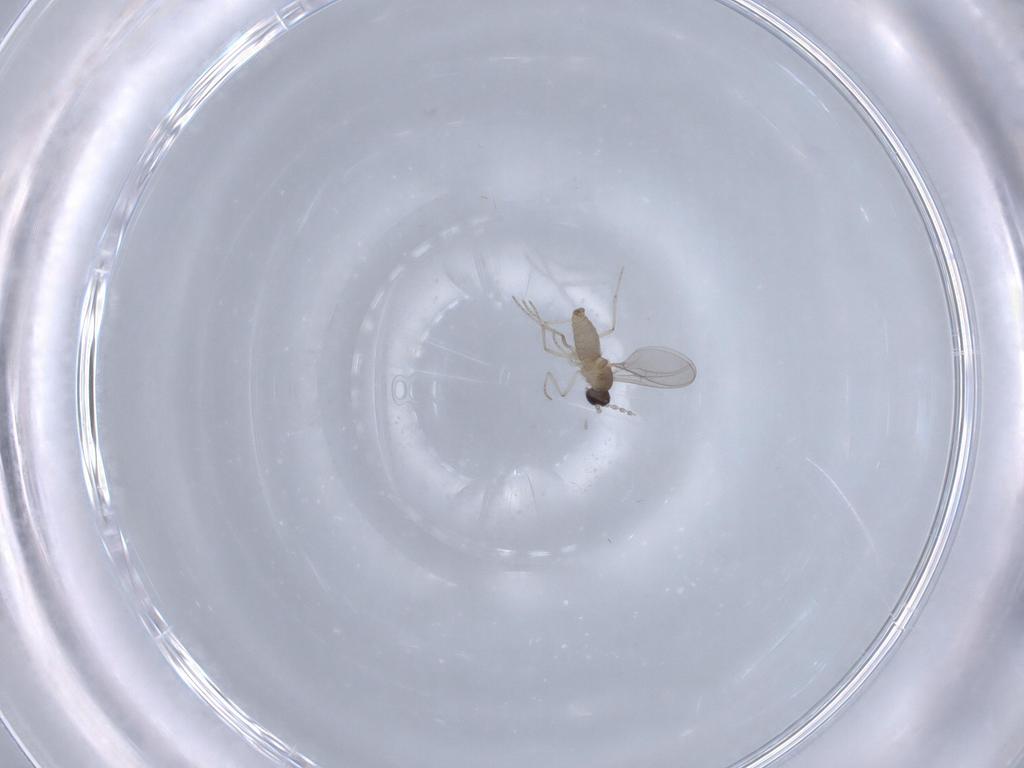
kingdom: Animalia
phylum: Arthropoda
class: Insecta
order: Diptera
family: Cecidomyiidae
